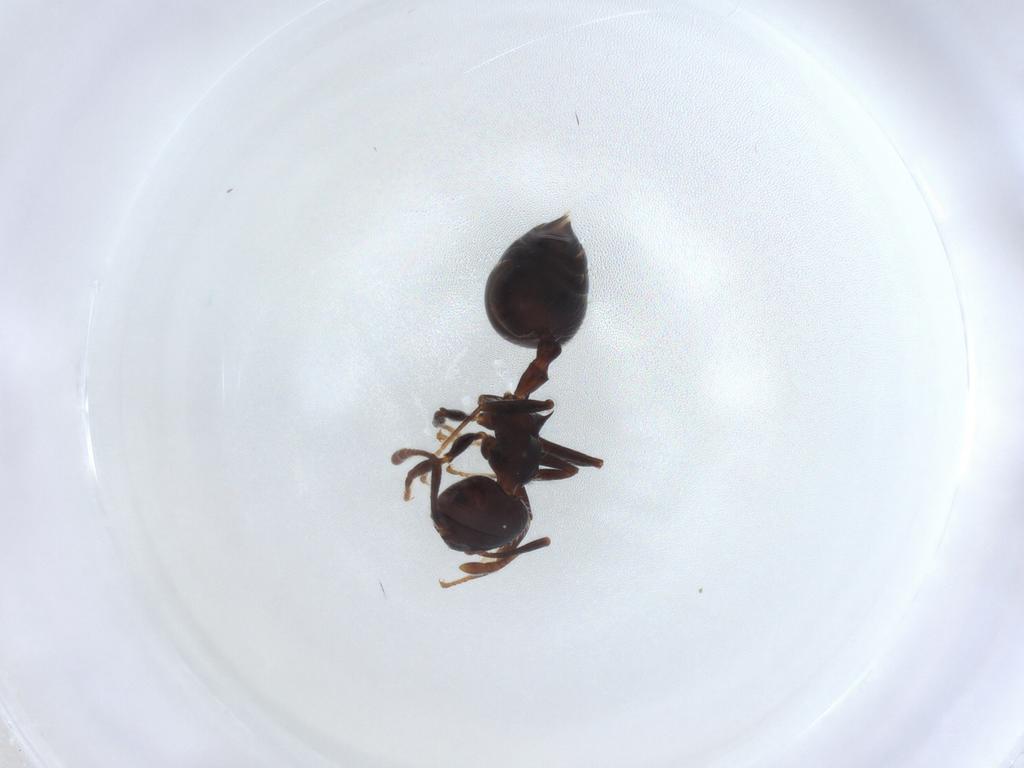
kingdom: Animalia
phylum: Arthropoda
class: Insecta
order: Hymenoptera
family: Formicidae
